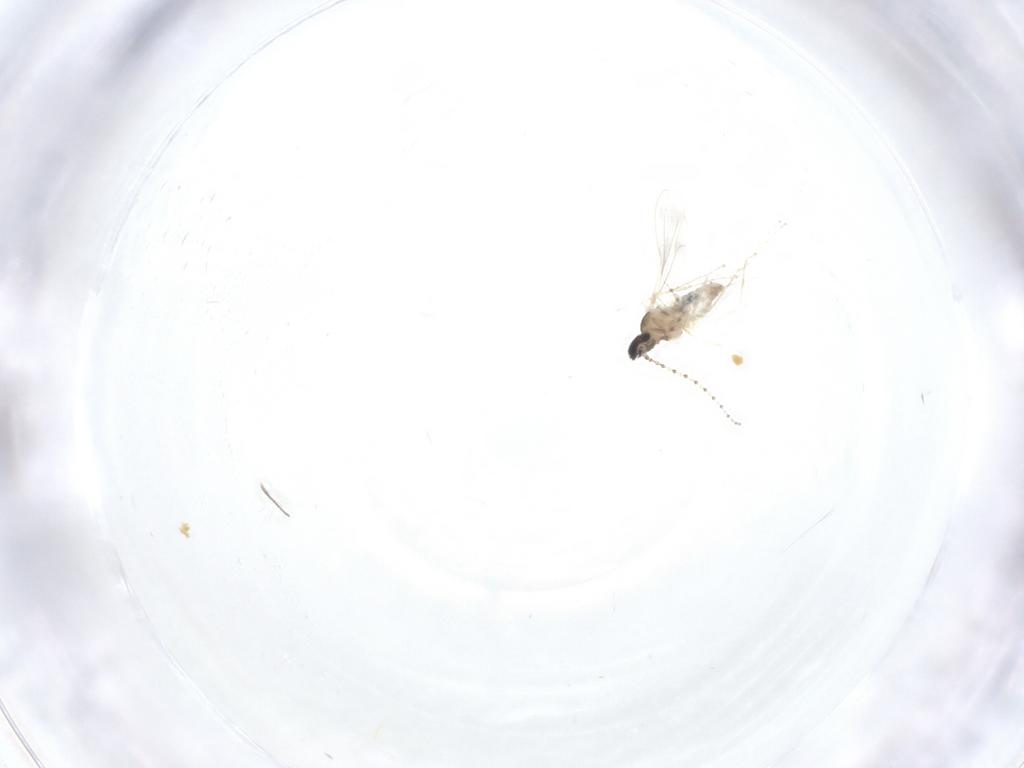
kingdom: Animalia
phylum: Arthropoda
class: Insecta
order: Diptera
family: Cecidomyiidae
